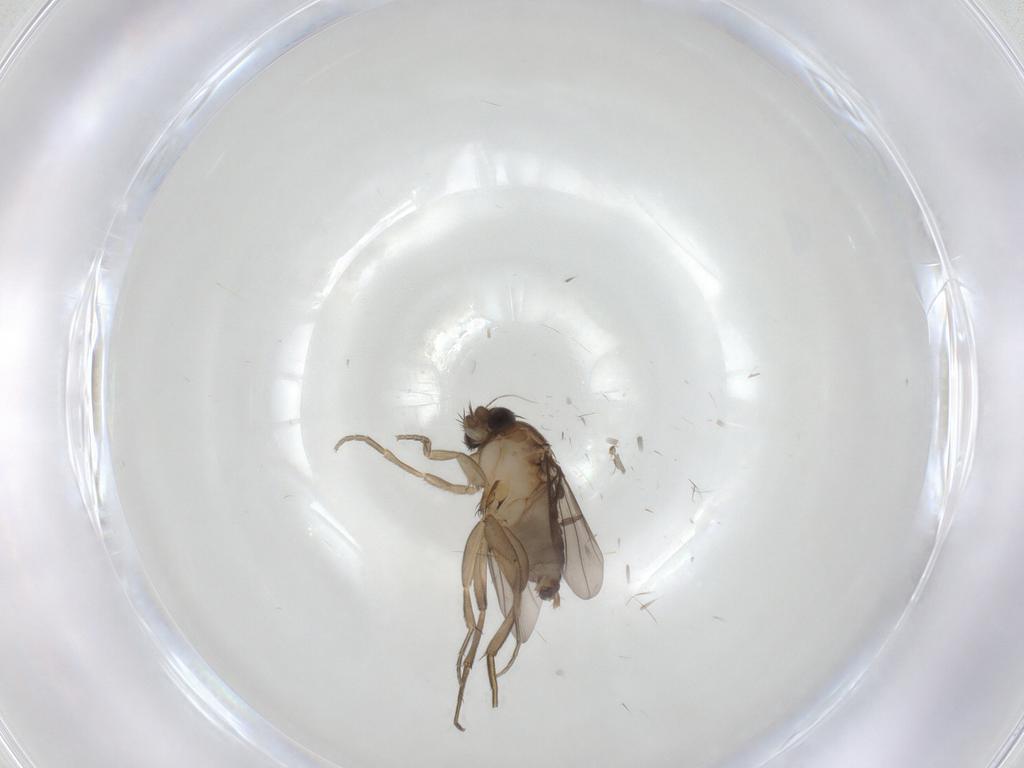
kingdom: Animalia
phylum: Arthropoda
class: Insecta
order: Diptera
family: Phoridae
